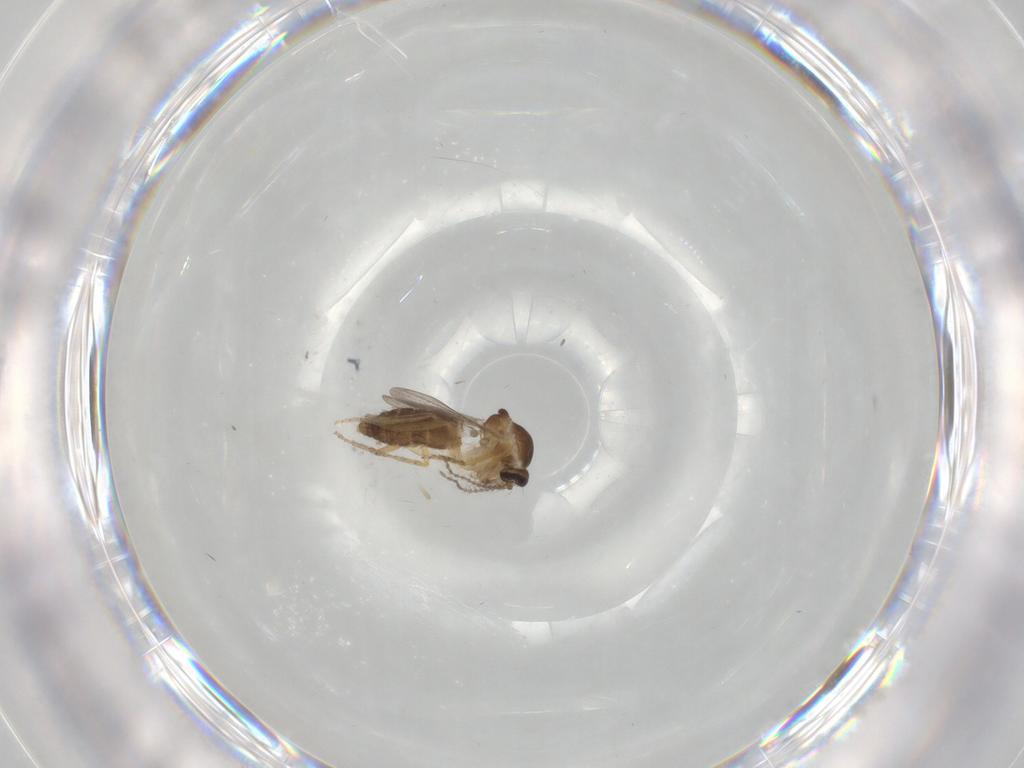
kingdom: Animalia
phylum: Arthropoda
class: Insecta
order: Diptera
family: Ceratopogonidae
